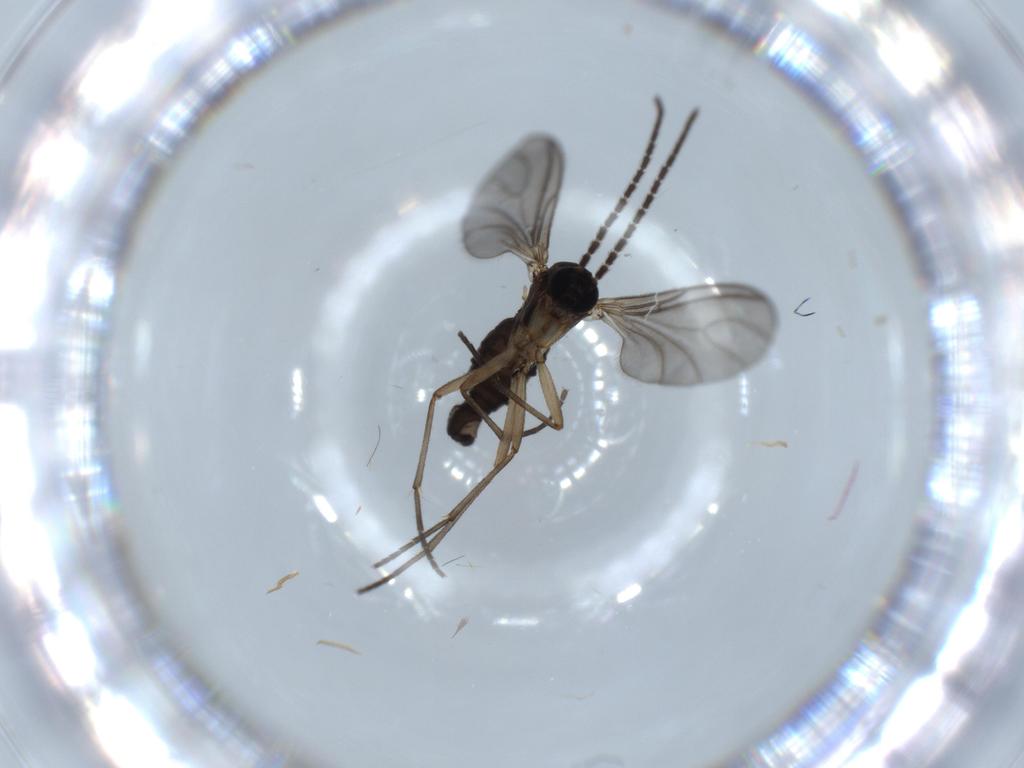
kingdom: Animalia
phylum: Arthropoda
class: Insecta
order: Diptera
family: Sciaridae
